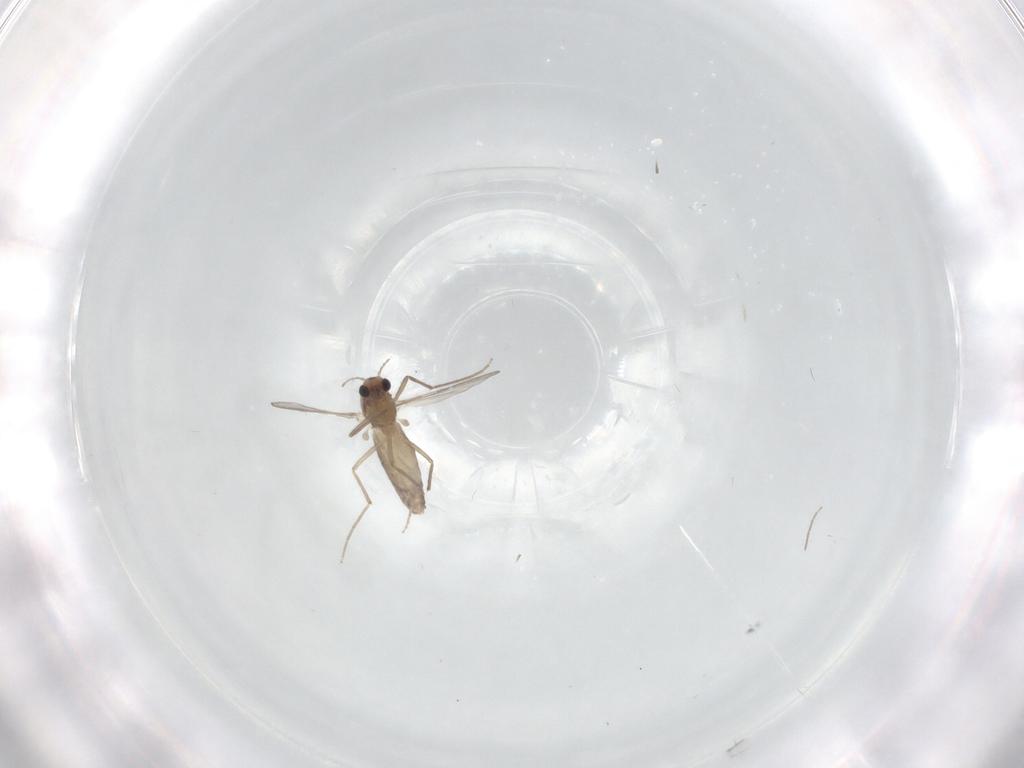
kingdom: Animalia
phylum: Arthropoda
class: Insecta
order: Diptera
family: Chironomidae
